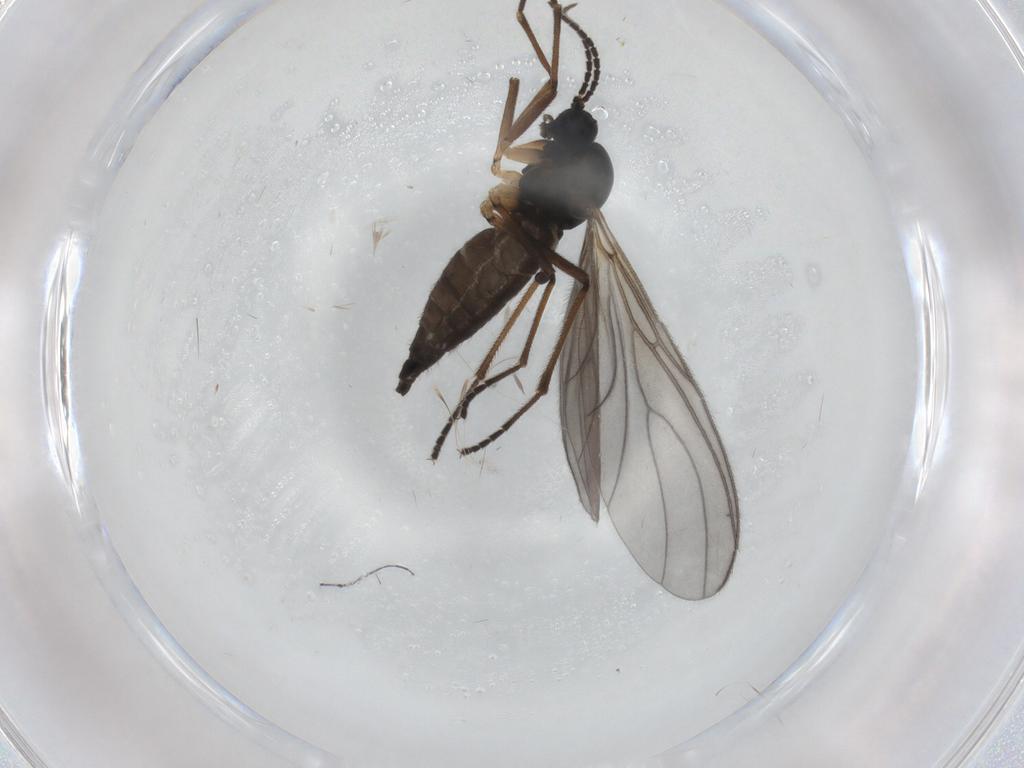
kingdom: Animalia
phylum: Arthropoda
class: Insecta
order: Diptera
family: Sciaridae
